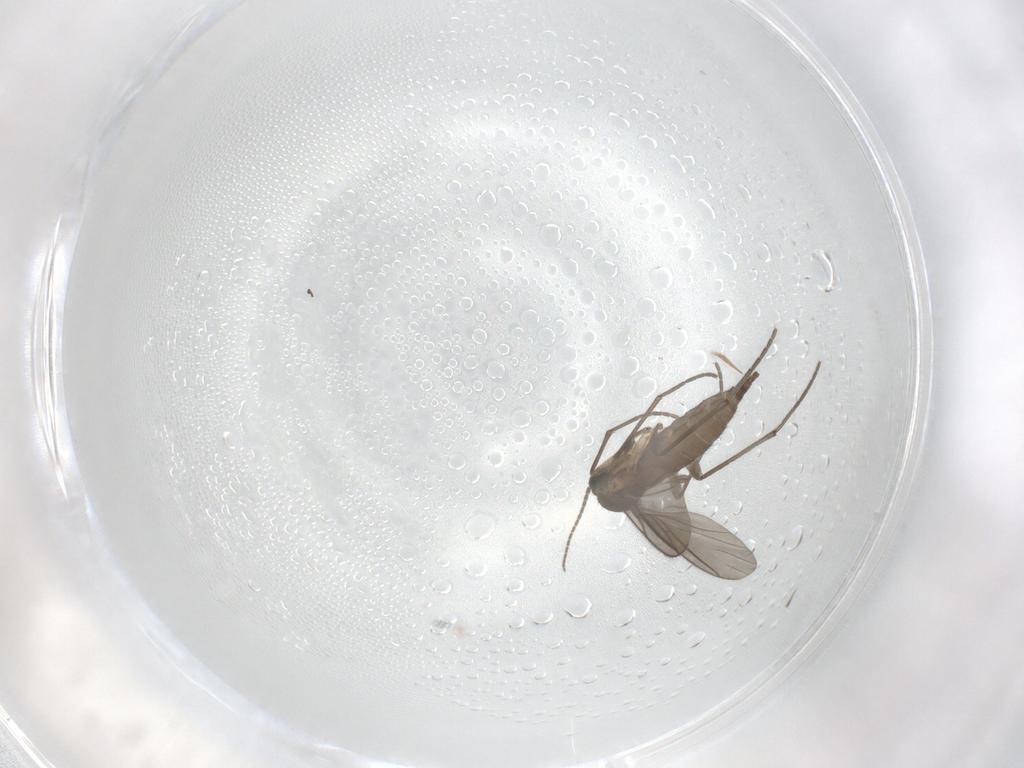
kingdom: Animalia
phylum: Arthropoda
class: Insecta
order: Diptera
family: Sciaridae
